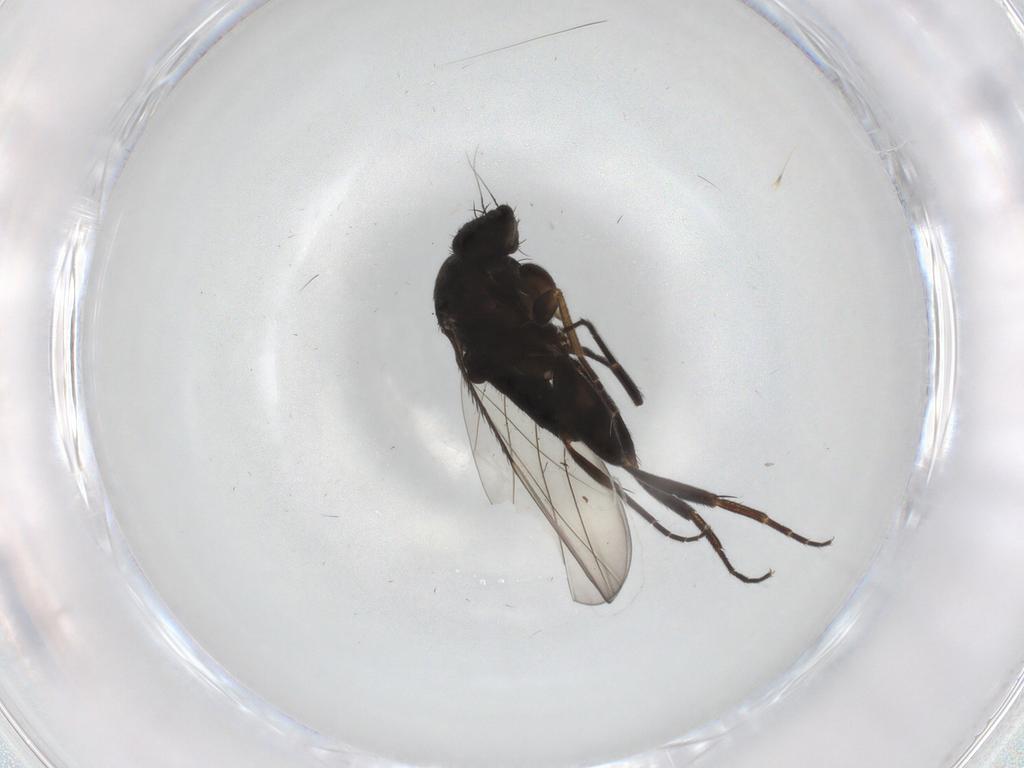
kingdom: Animalia
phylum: Arthropoda
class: Insecta
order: Diptera
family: Phoridae
